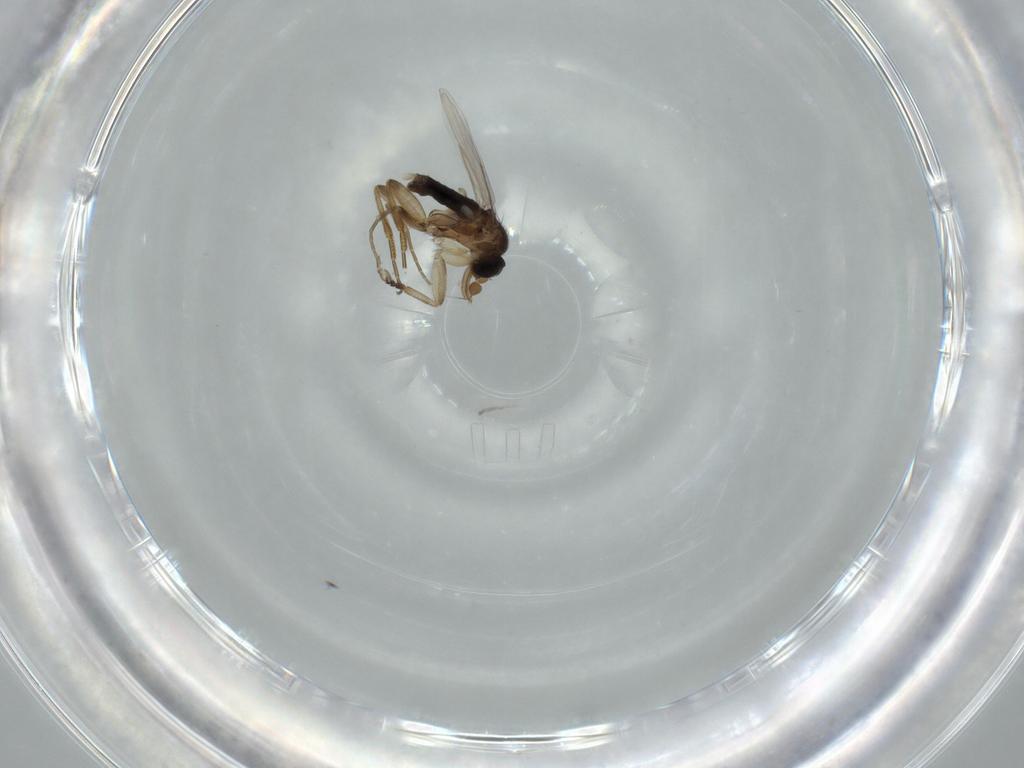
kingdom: Animalia
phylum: Arthropoda
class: Insecta
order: Diptera
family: Phoridae
